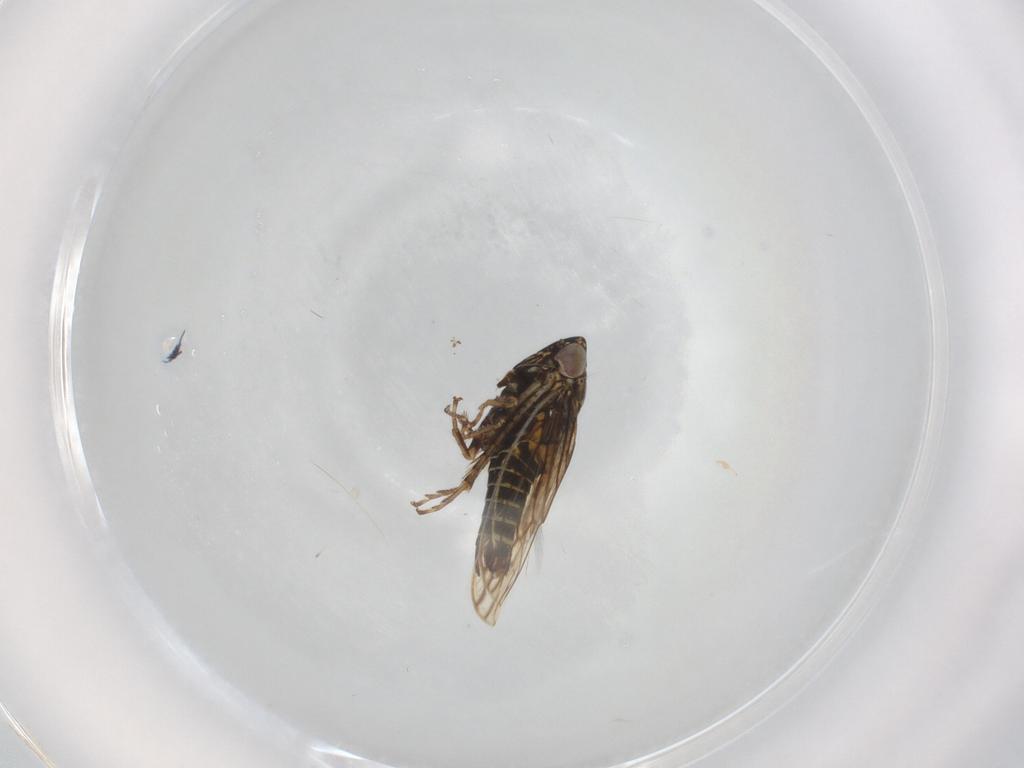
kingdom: Animalia
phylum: Arthropoda
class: Insecta
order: Hemiptera
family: Cicadellidae
